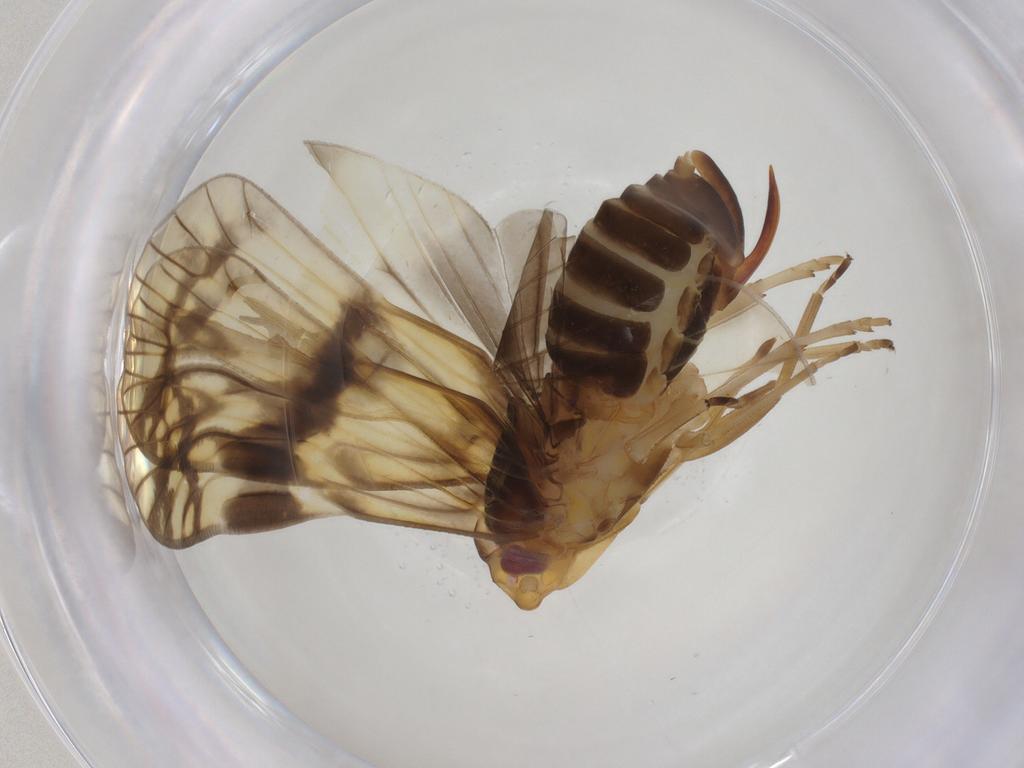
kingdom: Animalia
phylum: Arthropoda
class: Insecta
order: Hemiptera
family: Cixiidae
